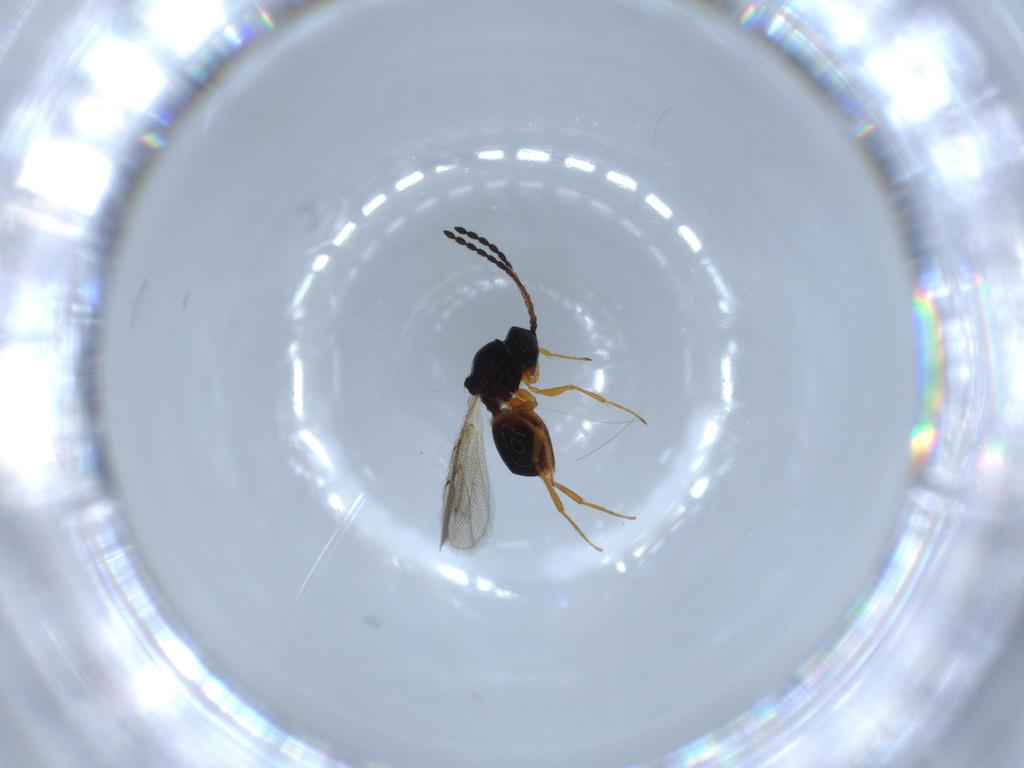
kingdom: Animalia
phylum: Arthropoda
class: Insecta
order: Hymenoptera
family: Figitidae
